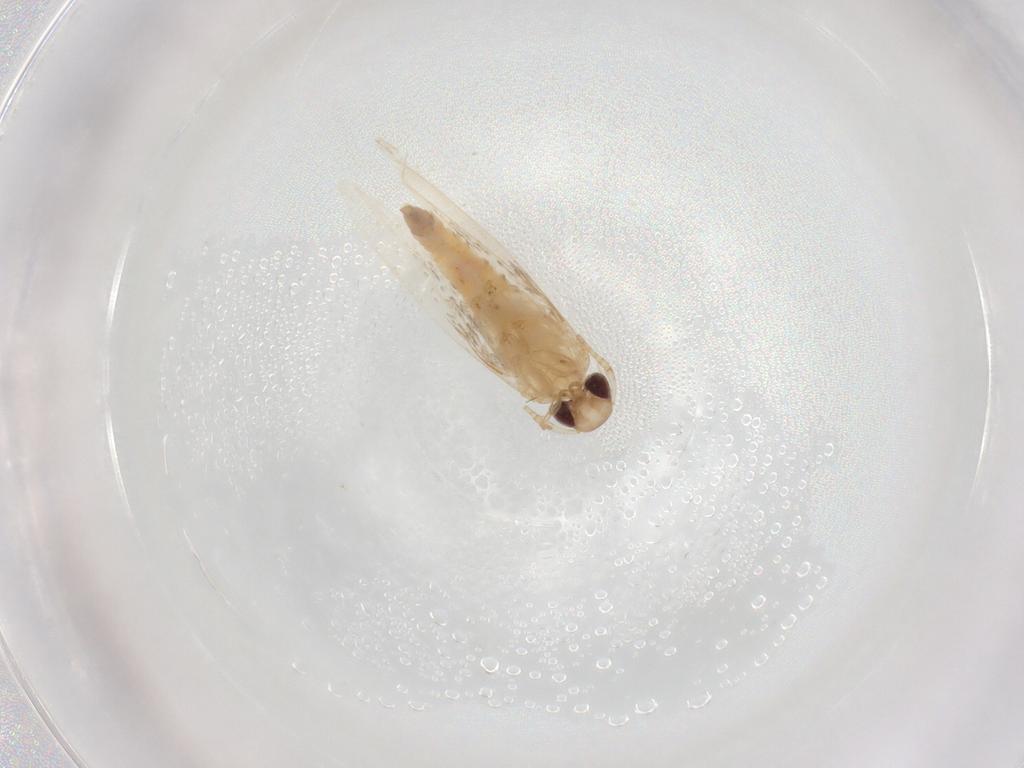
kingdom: Animalia
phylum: Arthropoda
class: Insecta
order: Lepidoptera
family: Cosmopterigidae
